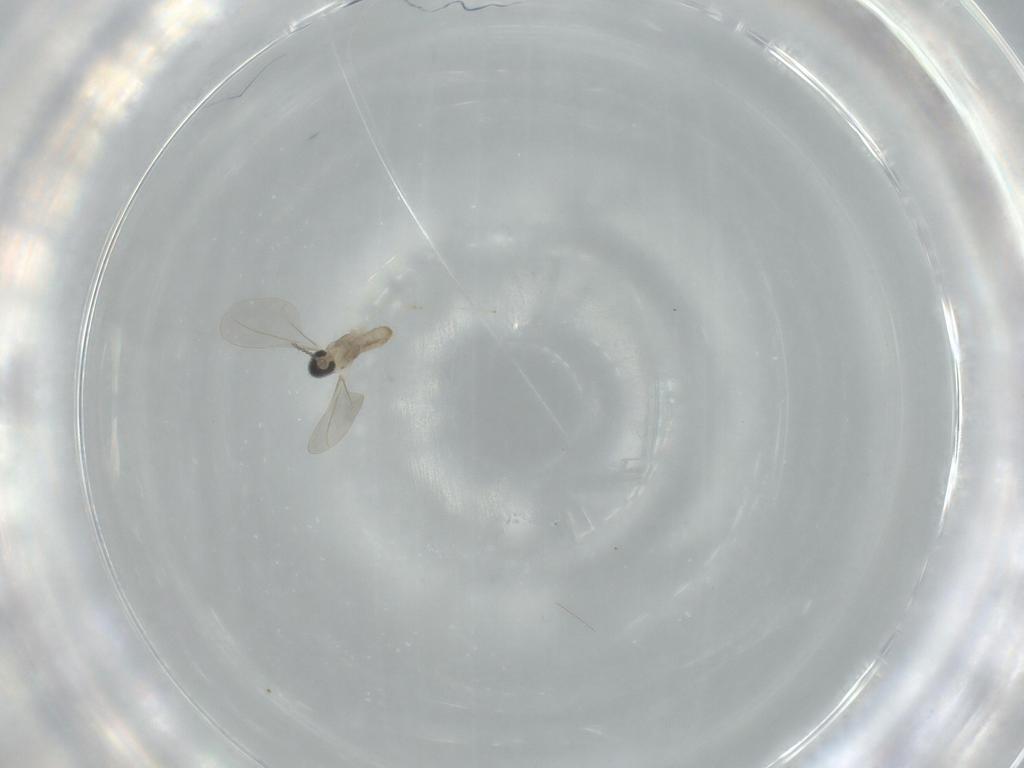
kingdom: Animalia
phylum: Arthropoda
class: Insecta
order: Diptera
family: Cecidomyiidae
